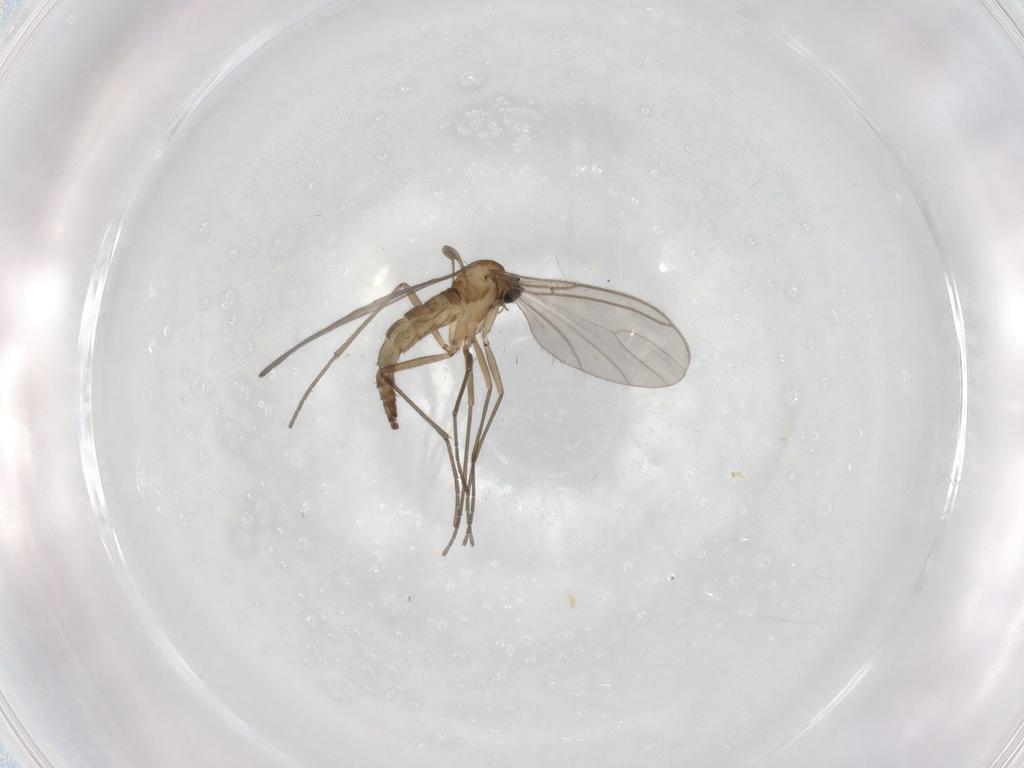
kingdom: Animalia
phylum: Arthropoda
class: Insecta
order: Diptera
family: Sciaridae
